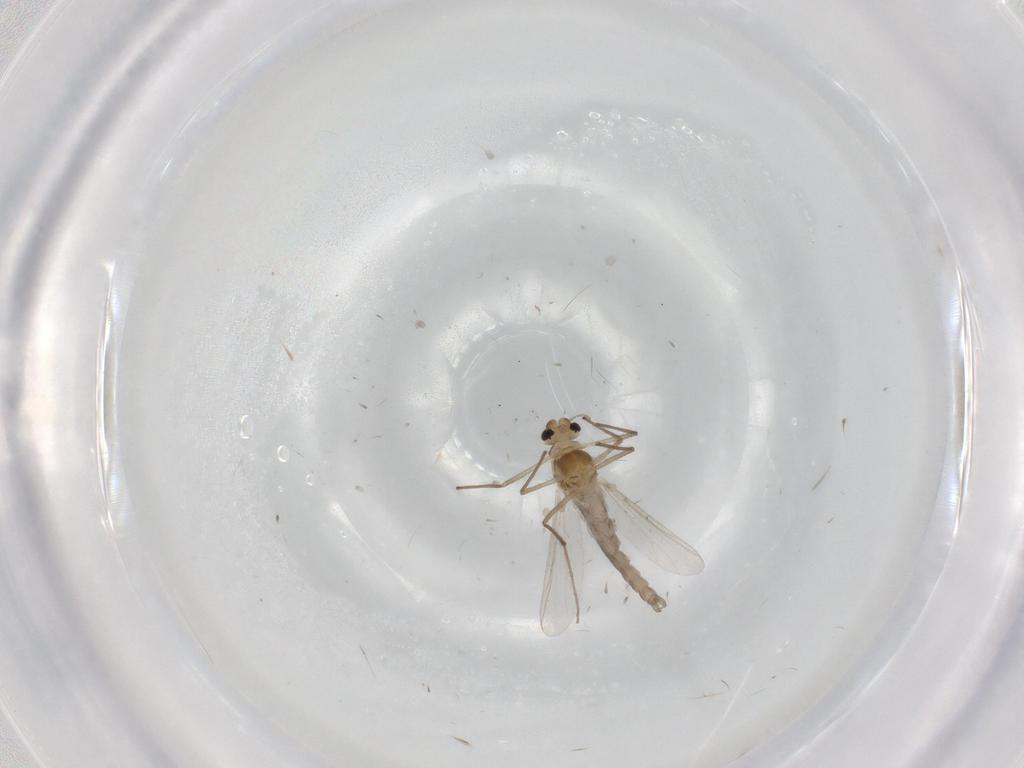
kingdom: Animalia
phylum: Arthropoda
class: Insecta
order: Diptera
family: Chironomidae
